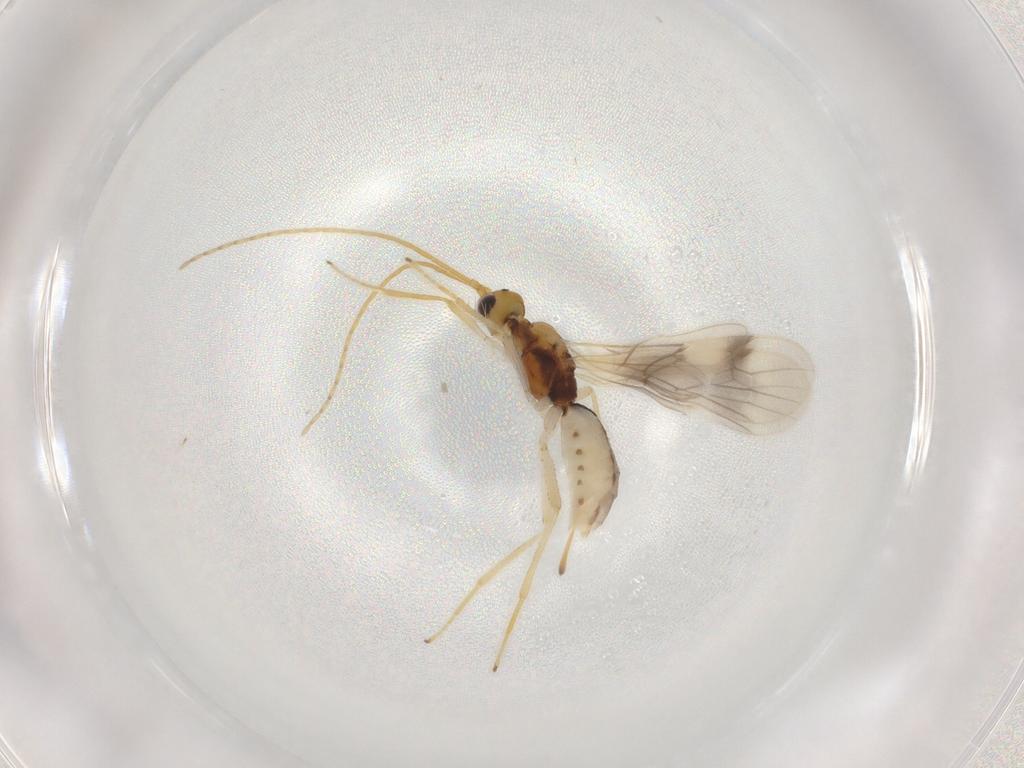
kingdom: Animalia
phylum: Arthropoda
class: Insecta
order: Hymenoptera
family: Braconidae
